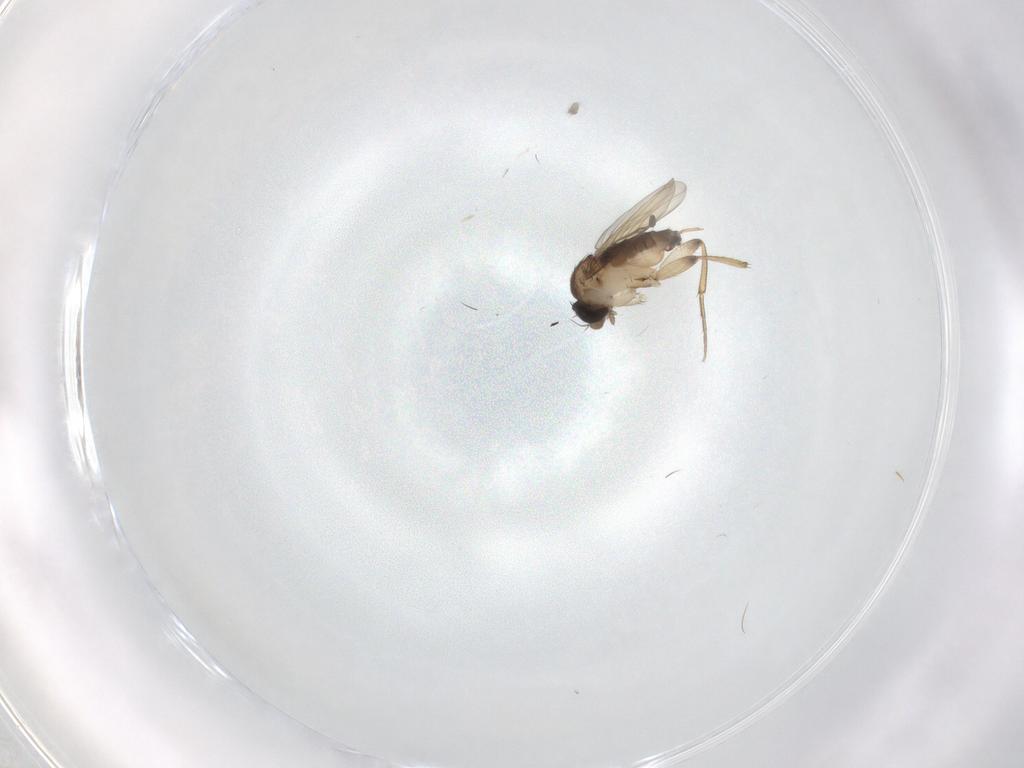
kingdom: Animalia
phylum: Arthropoda
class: Insecta
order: Diptera
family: Phoridae
